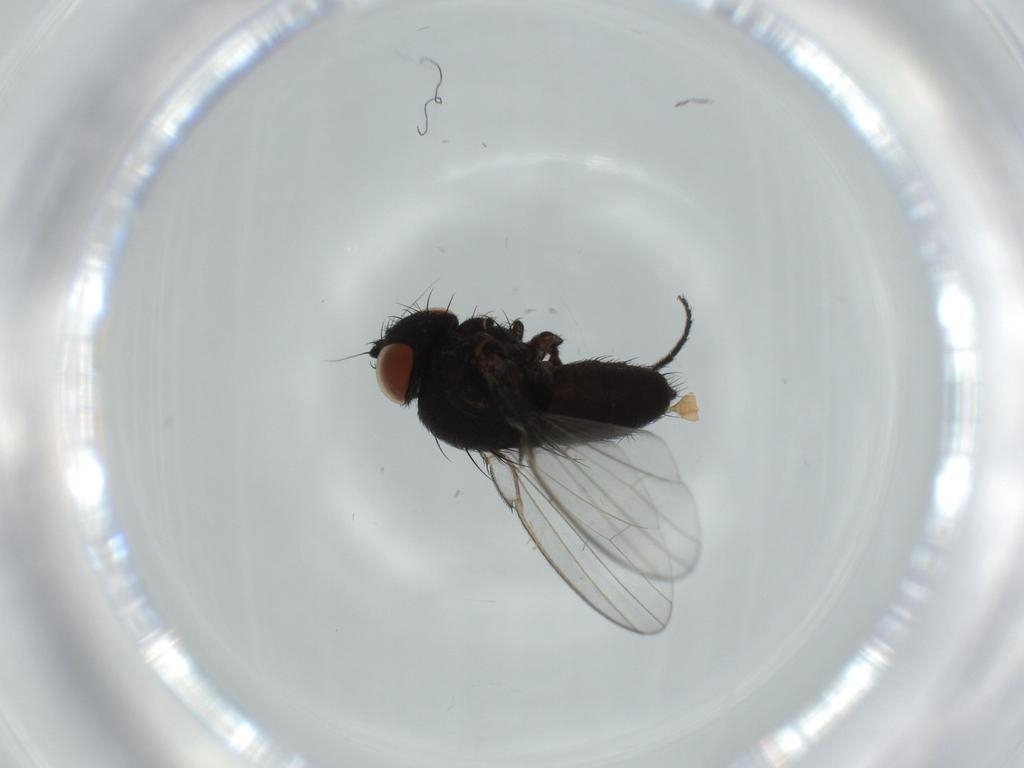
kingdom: Animalia
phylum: Arthropoda
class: Insecta
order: Diptera
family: Milichiidae
